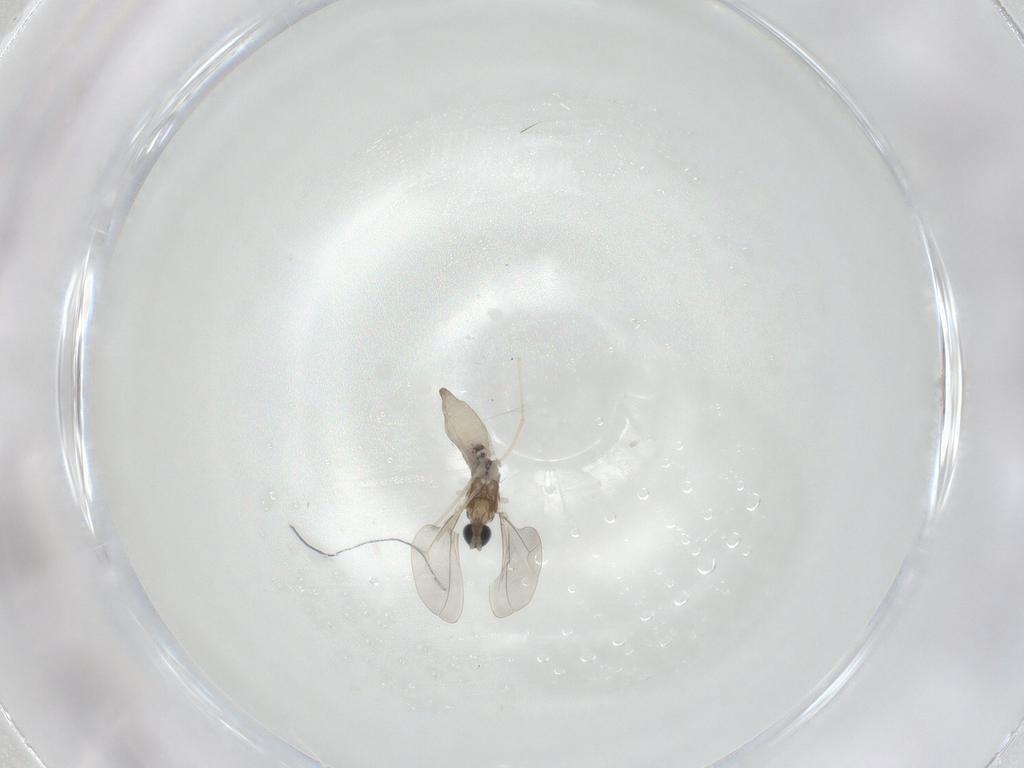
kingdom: Animalia
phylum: Arthropoda
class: Insecta
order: Diptera
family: Cecidomyiidae
